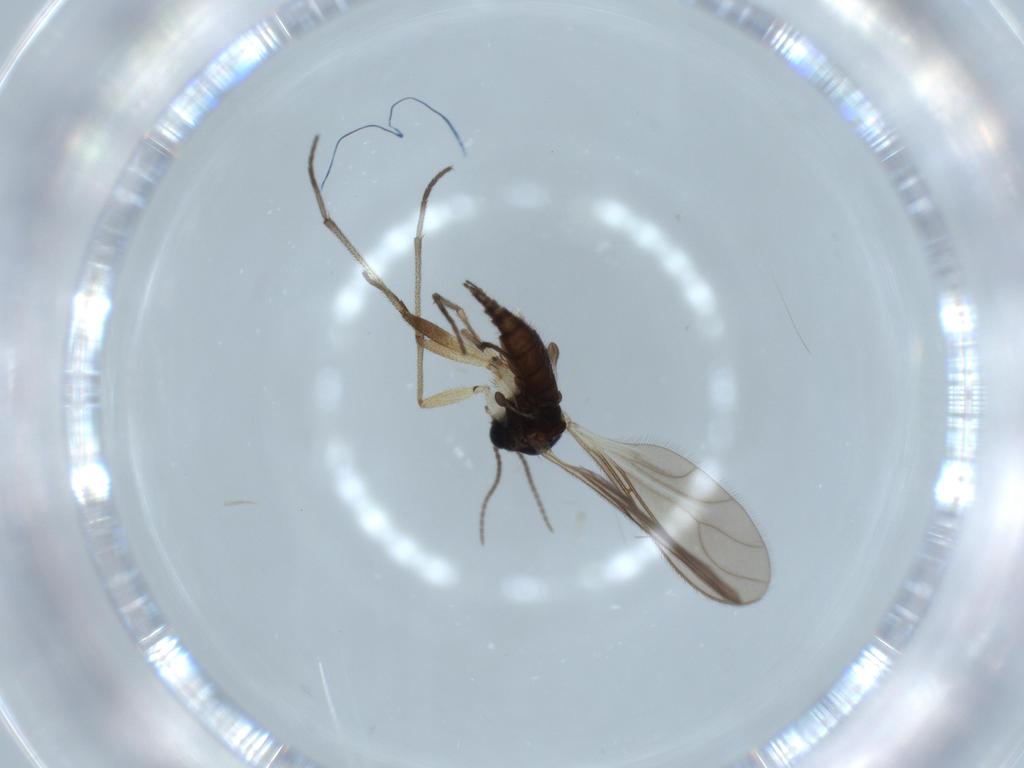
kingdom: Animalia
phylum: Arthropoda
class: Insecta
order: Diptera
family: Sciaridae
